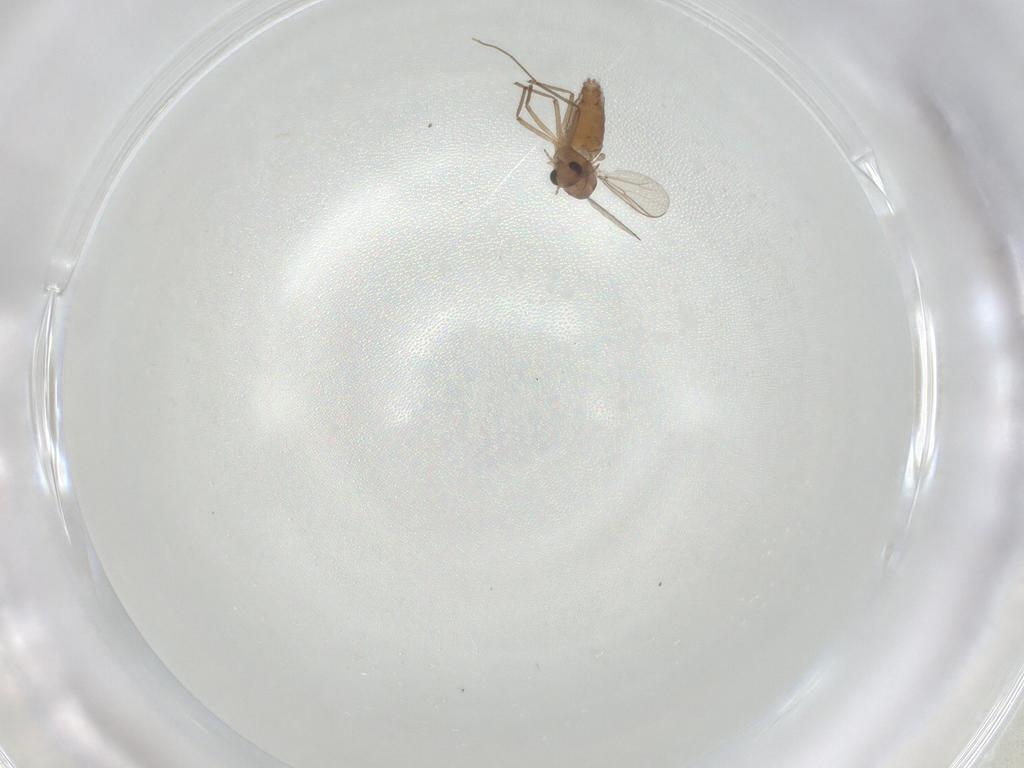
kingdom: Animalia
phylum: Arthropoda
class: Insecta
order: Diptera
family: Chironomidae
